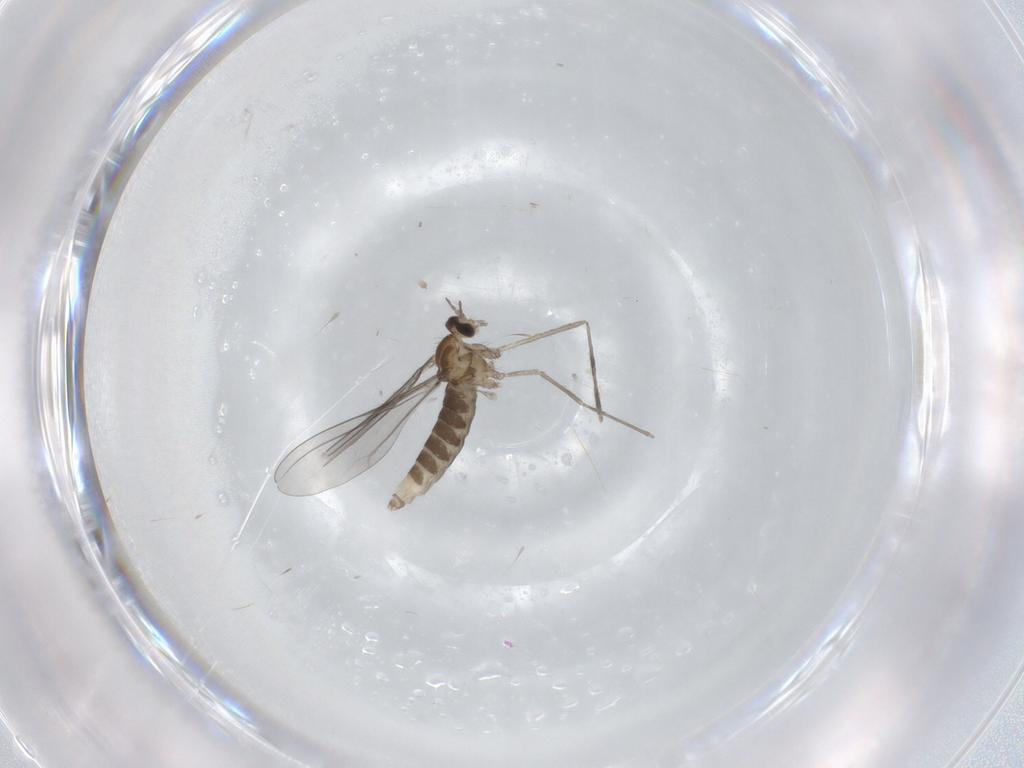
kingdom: Animalia
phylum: Arthropoda
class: Insecta
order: Diptera
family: Cecidomyiidae
